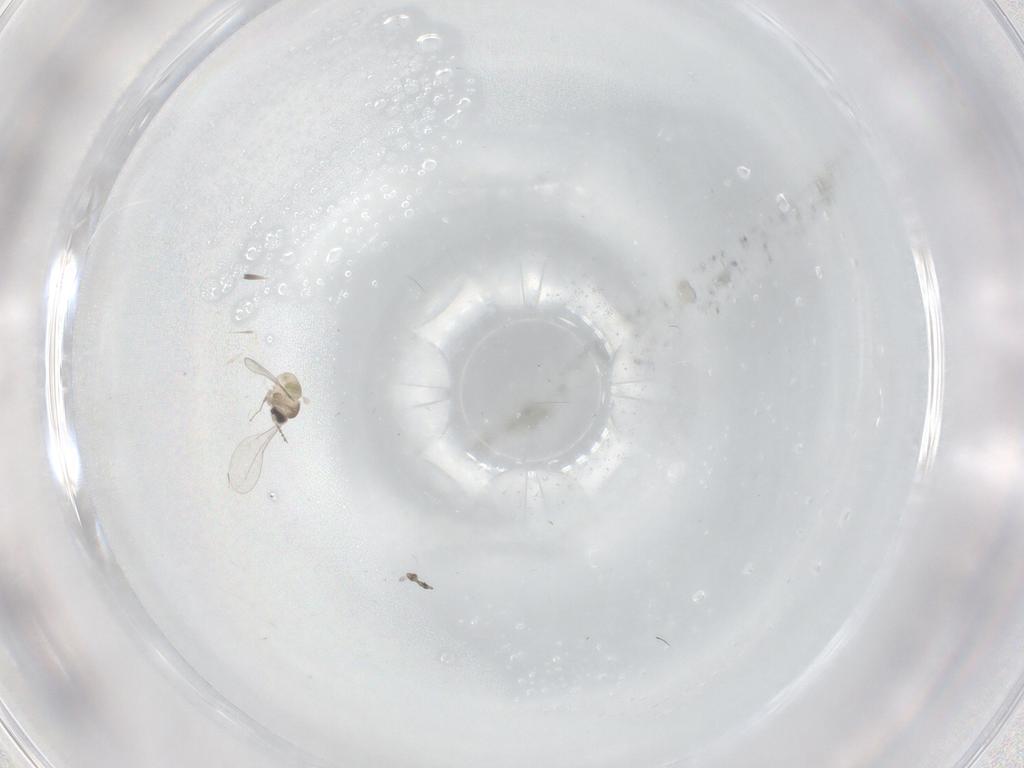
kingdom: Animalia
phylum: Arthropoda
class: Insecta
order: Diptera
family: Cecidomyiidae
